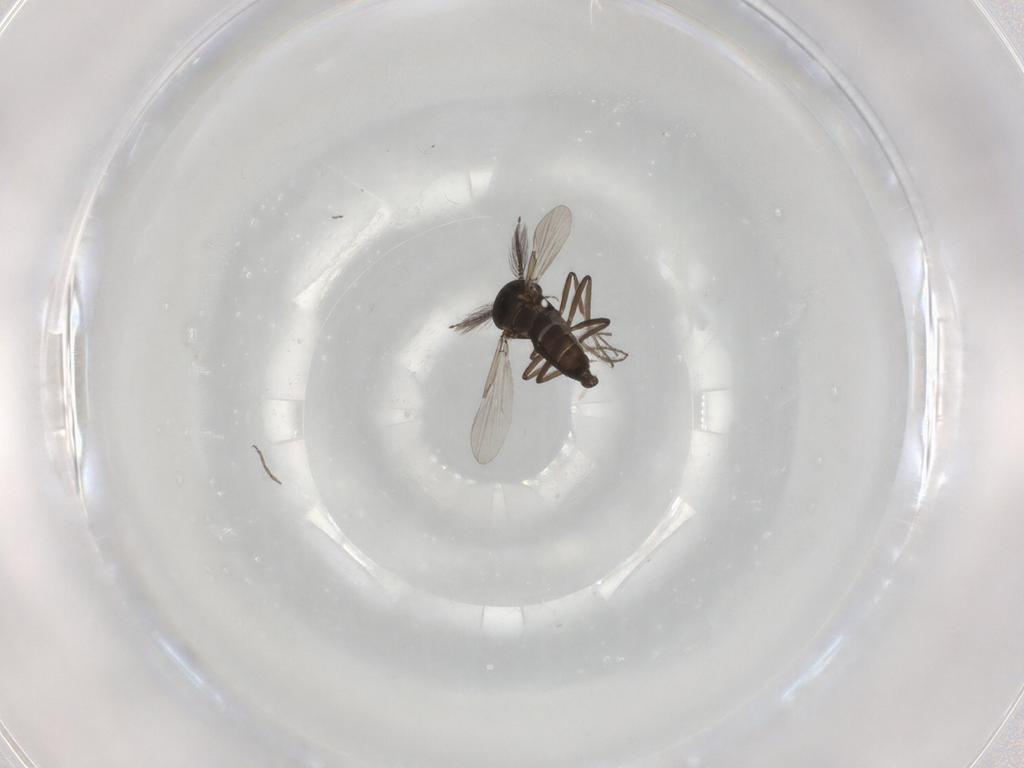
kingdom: Animalia
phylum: Arthropoda
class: Insecta
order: Diptera
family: Ceratopogonidae
